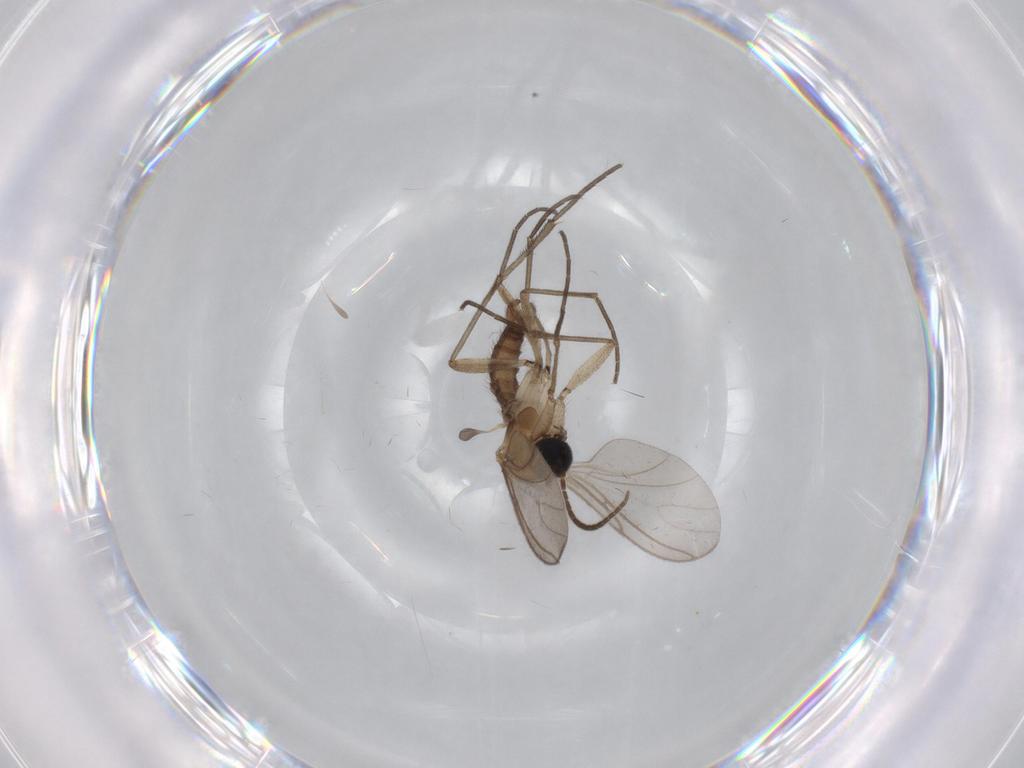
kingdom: Animalia
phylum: Arthropoda
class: Insecta
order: Diptera
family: Sciaridae
